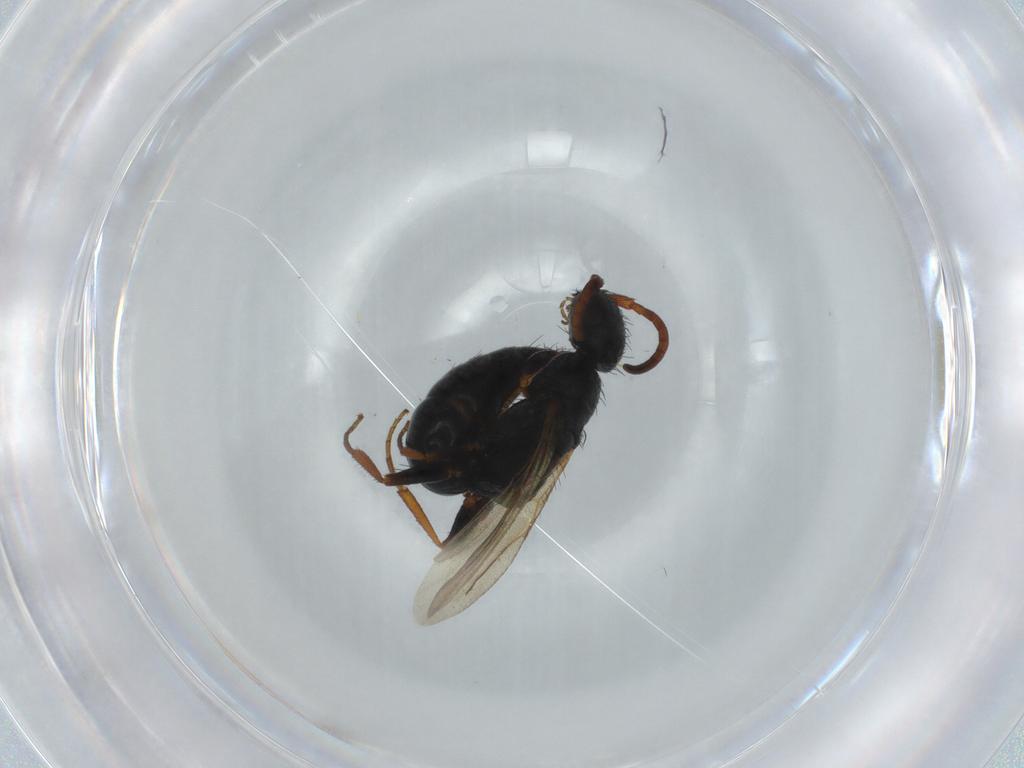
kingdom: Animalia
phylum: Arthropoda
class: Insecta
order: Hymenoptera
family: Bethylidae
